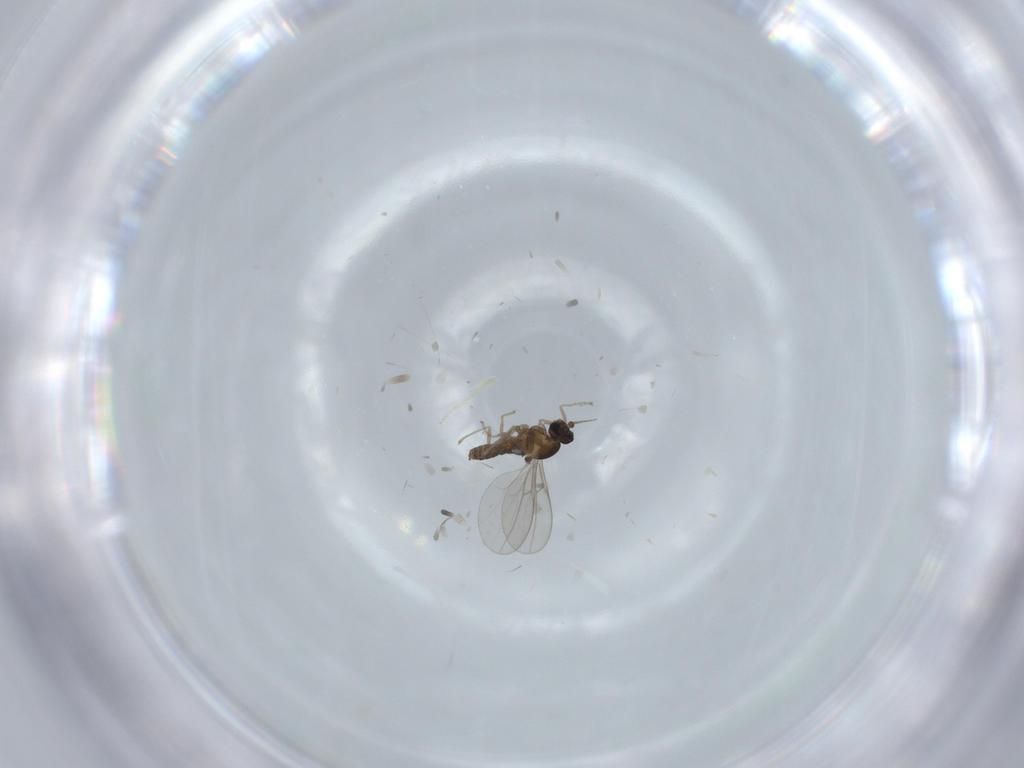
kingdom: Animalia
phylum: Arthropoda
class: Insecta
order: Diptera
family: Cecidomyiidae
